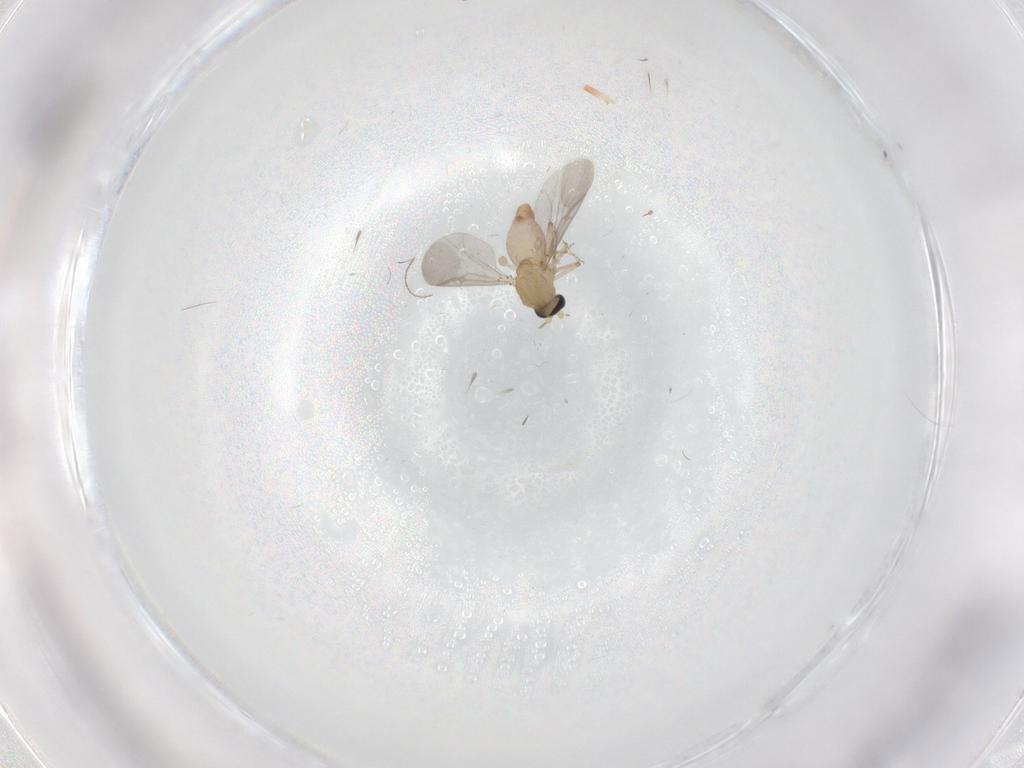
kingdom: Animalia
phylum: Arthropoda
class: Insecta
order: Diptera
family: Ceratopogonidae
